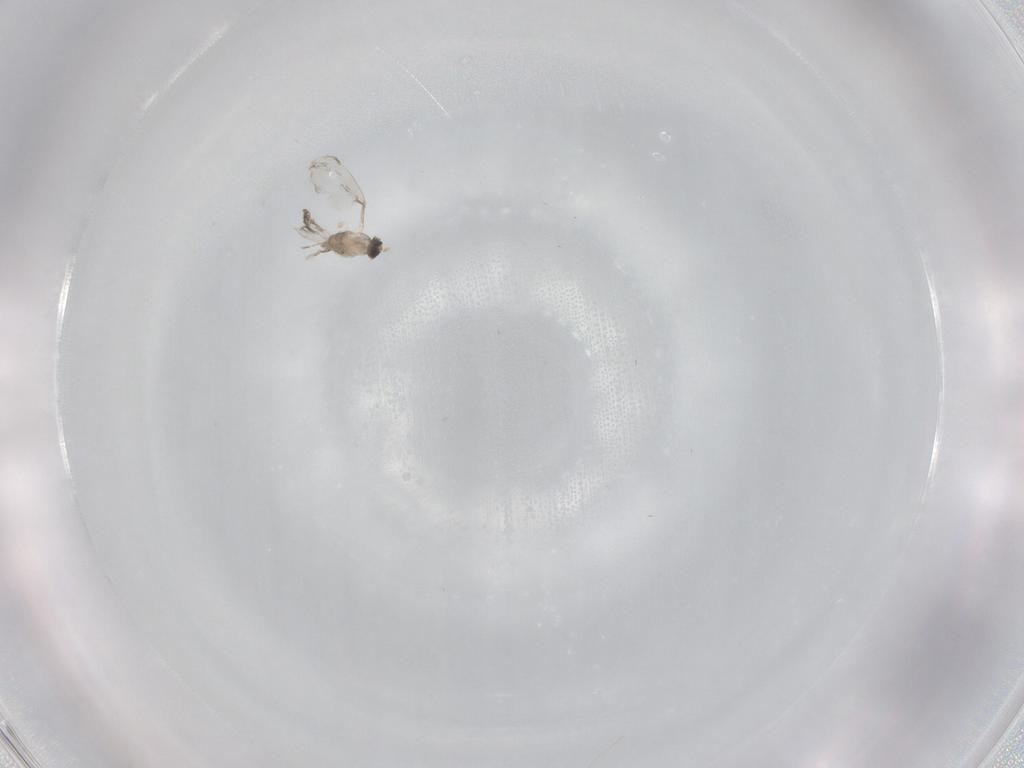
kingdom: Animalia
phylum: Arthropoda
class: Insecta
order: Diptera
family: Cecidomyiidae
